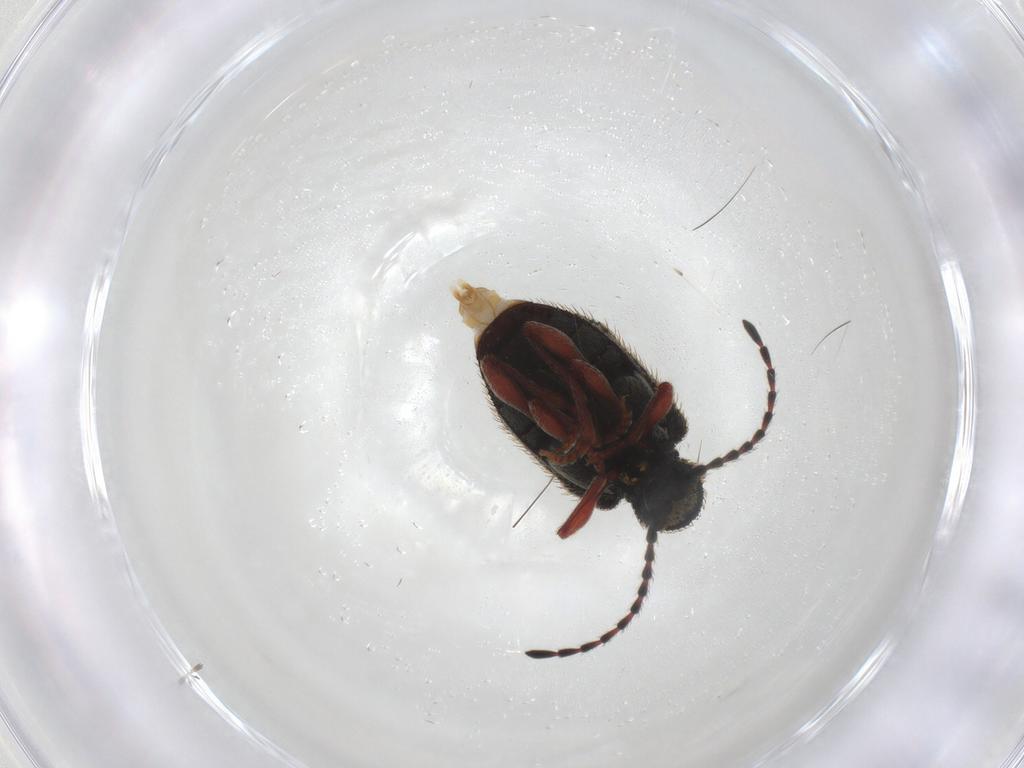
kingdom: Animalia
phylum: Arthropoda
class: Insecta
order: Coleoptera
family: Ptinidae
